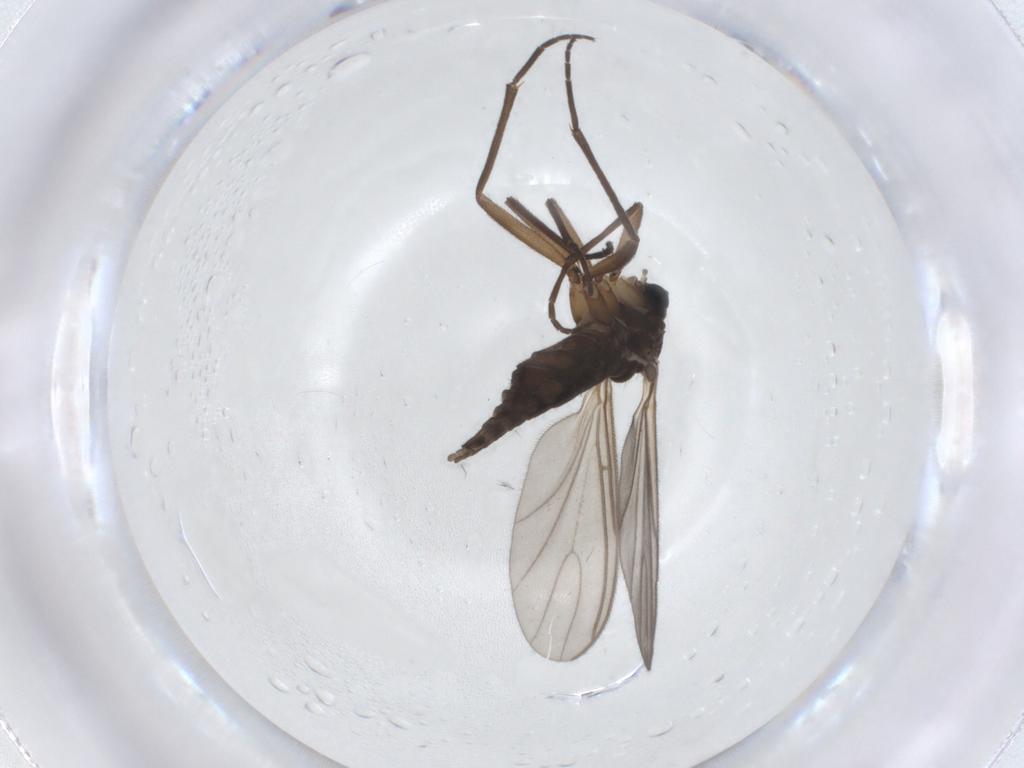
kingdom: Animalia
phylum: Arthropoda
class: Insecta
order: Diptera
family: Sciaridae
